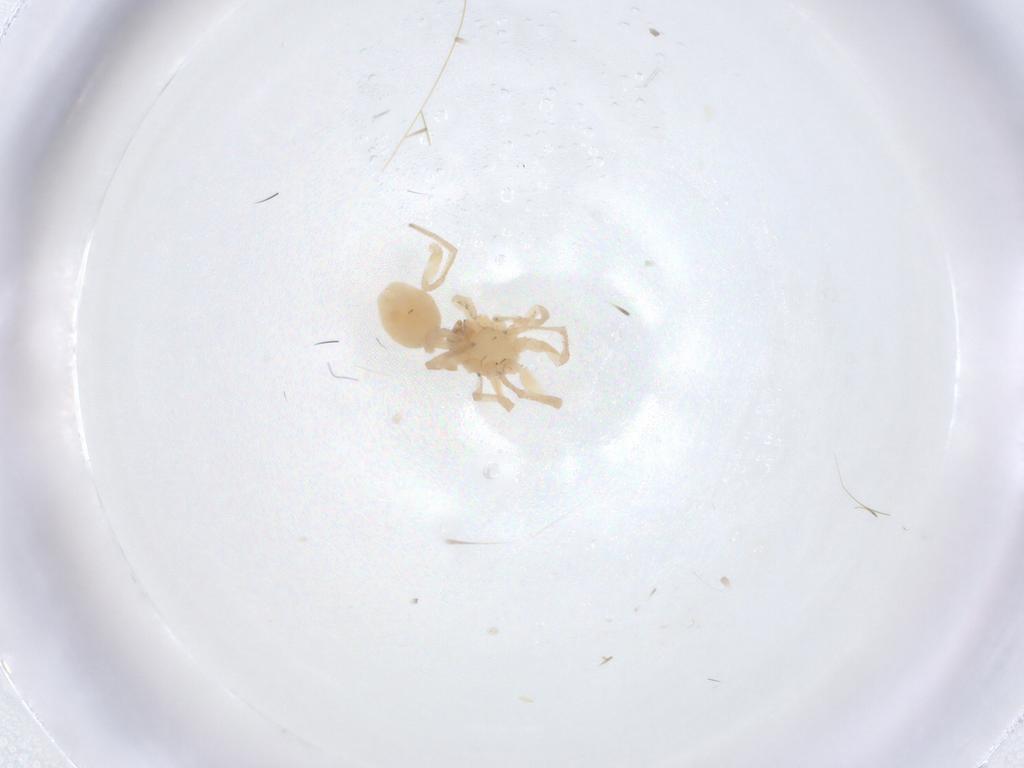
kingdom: Animalia
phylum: Arthropoda
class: Arachnida
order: Araneae
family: Corinnidae
